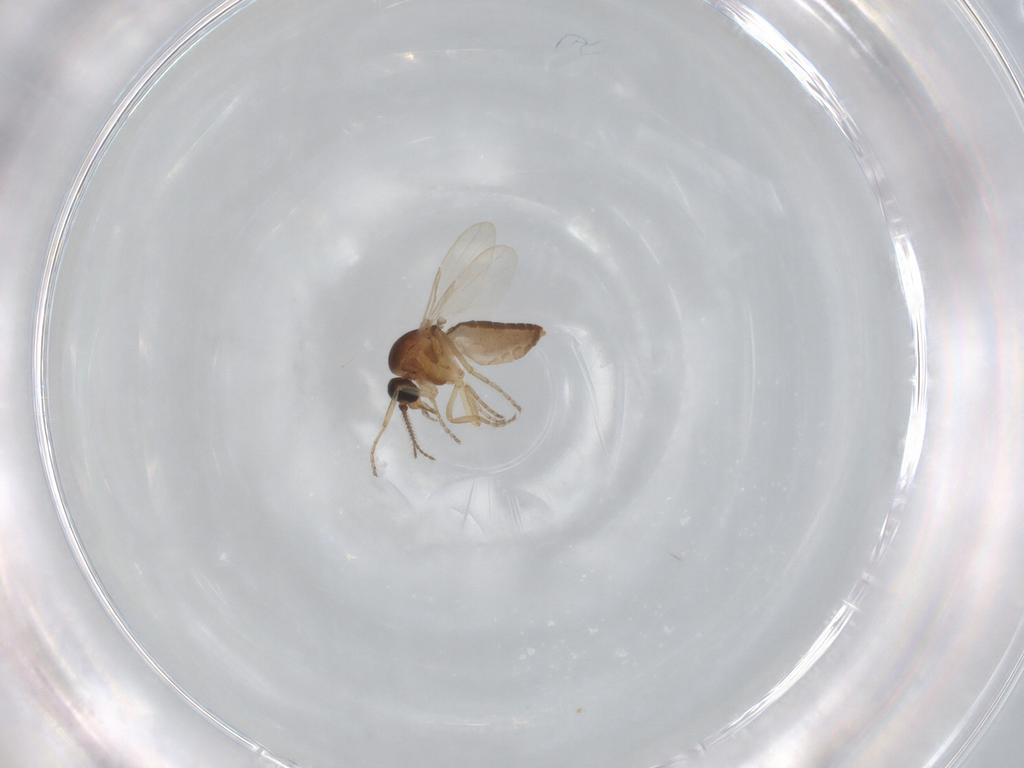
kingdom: Animalia
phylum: Arthropoda
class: Insecta
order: Diptera
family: Ceratopogonidae
